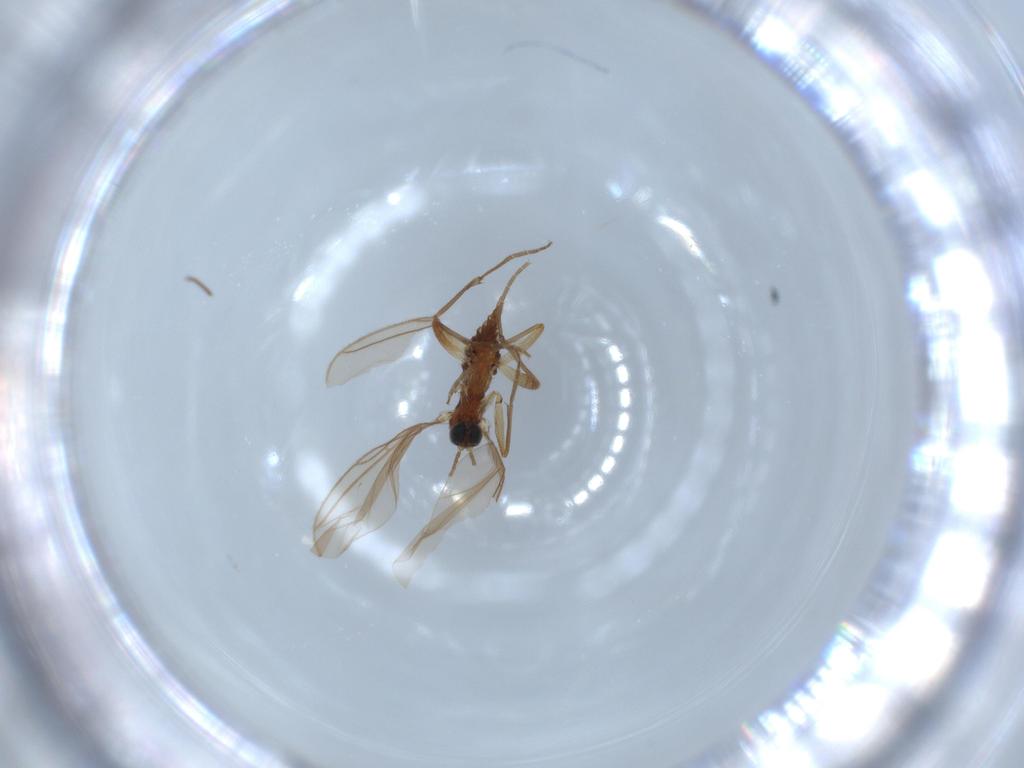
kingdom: Animalia
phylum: Arthropoda
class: Insecta
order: Diptera
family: Sciaridae
